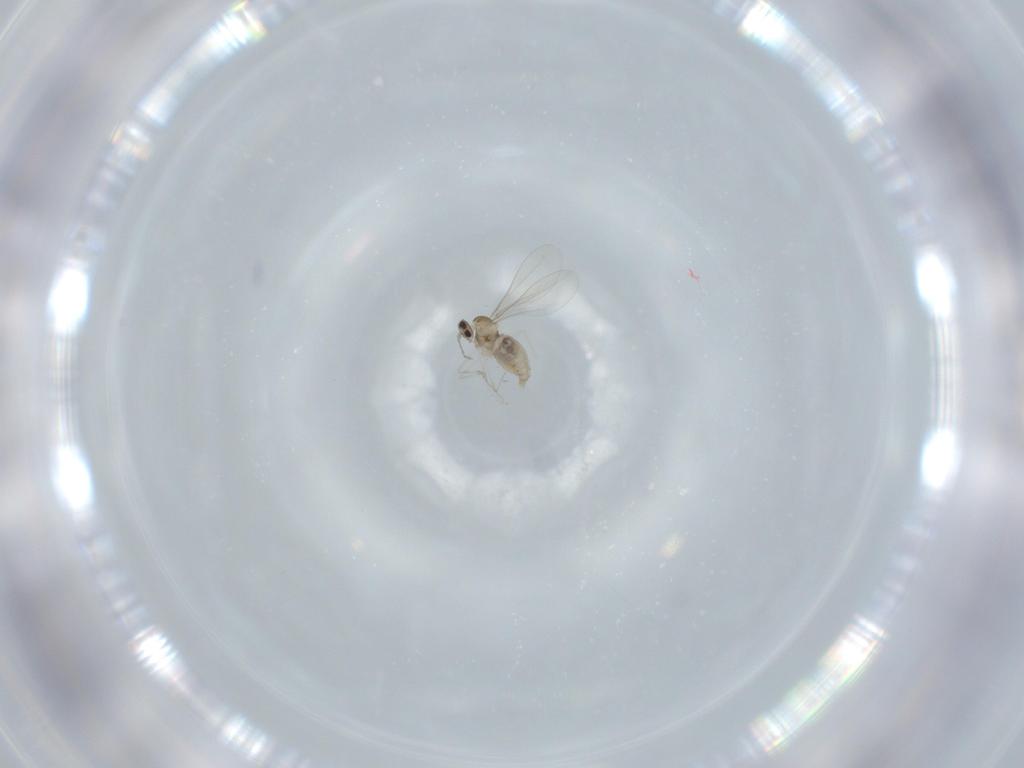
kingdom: Animalia
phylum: Arthropoda
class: Insecta
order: Diptera
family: Cecidomyiidae
